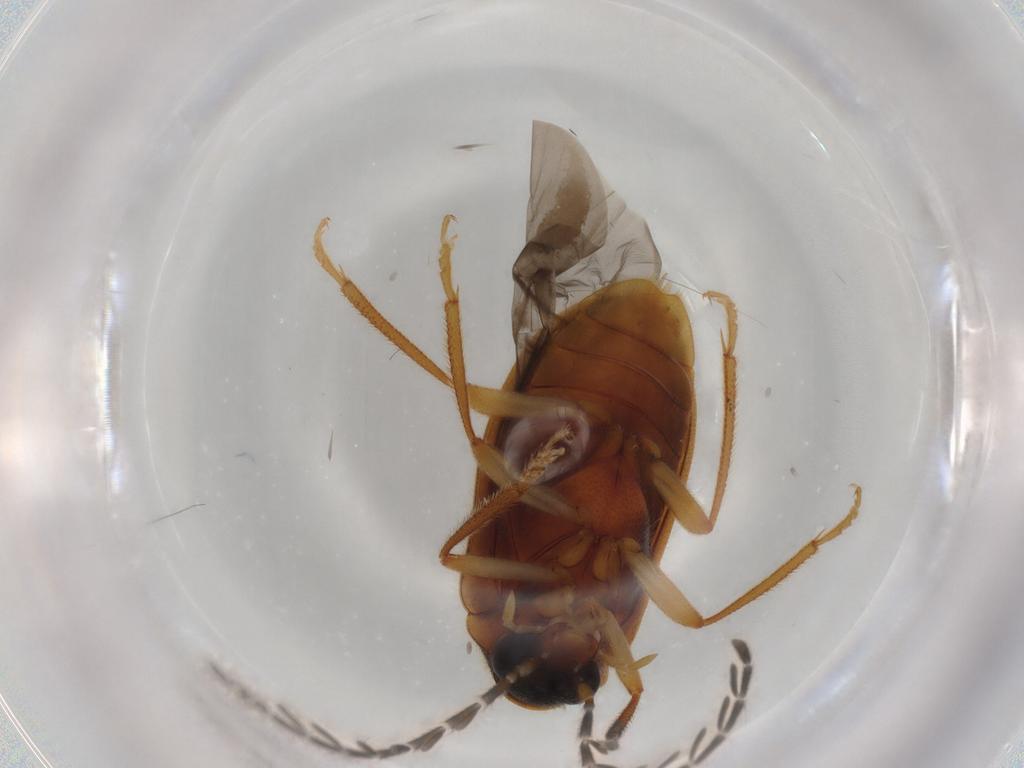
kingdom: Animalia
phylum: Arthropoda
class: Insecta
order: Coleoptera
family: Ptilodactylidae
